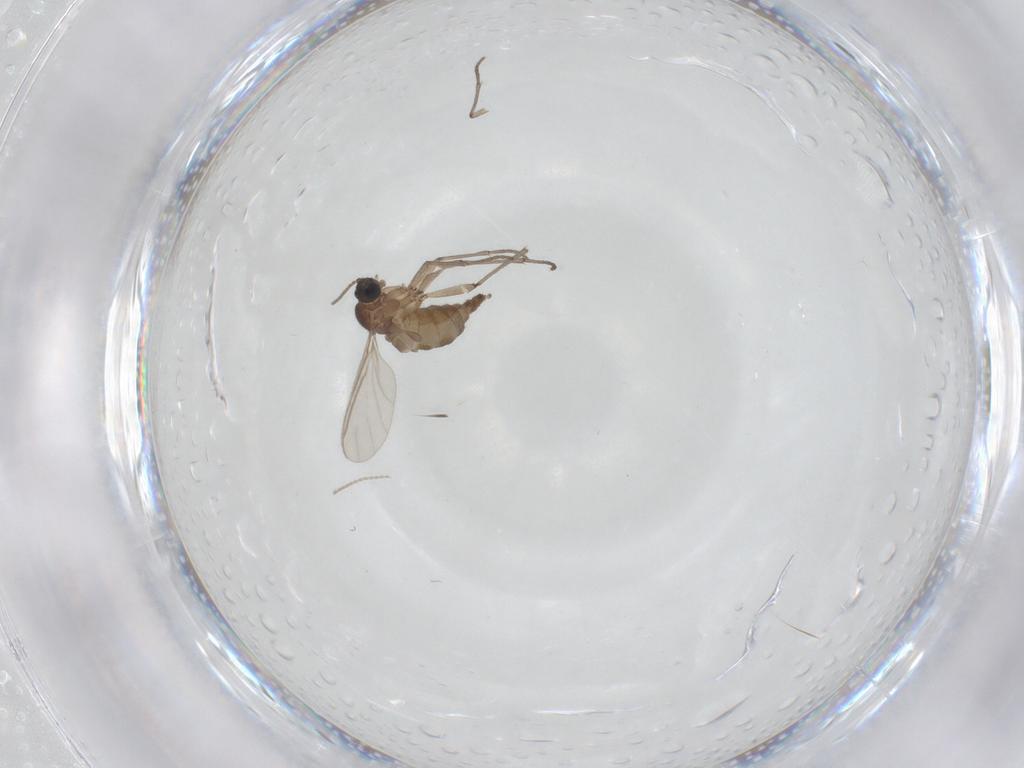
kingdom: Animalia
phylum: Arthropoda
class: Insecta
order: Diptera
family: Sciaridae
